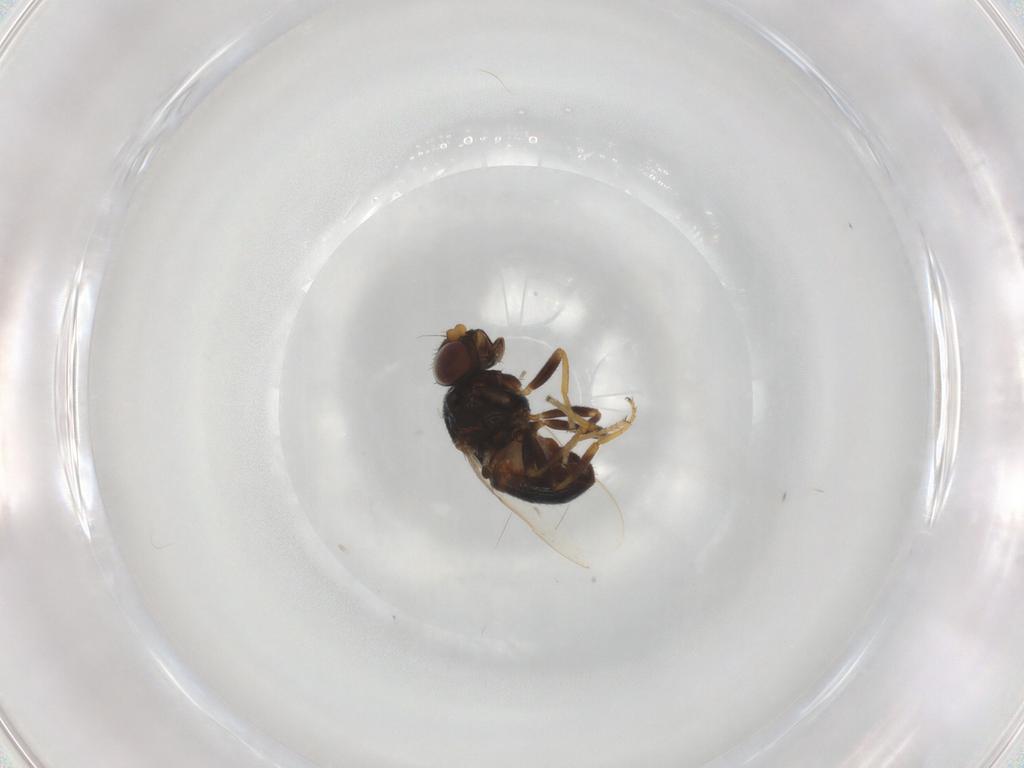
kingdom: Animalia
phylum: Arthropoda
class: Insecta
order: Diptera
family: Chloropidae
